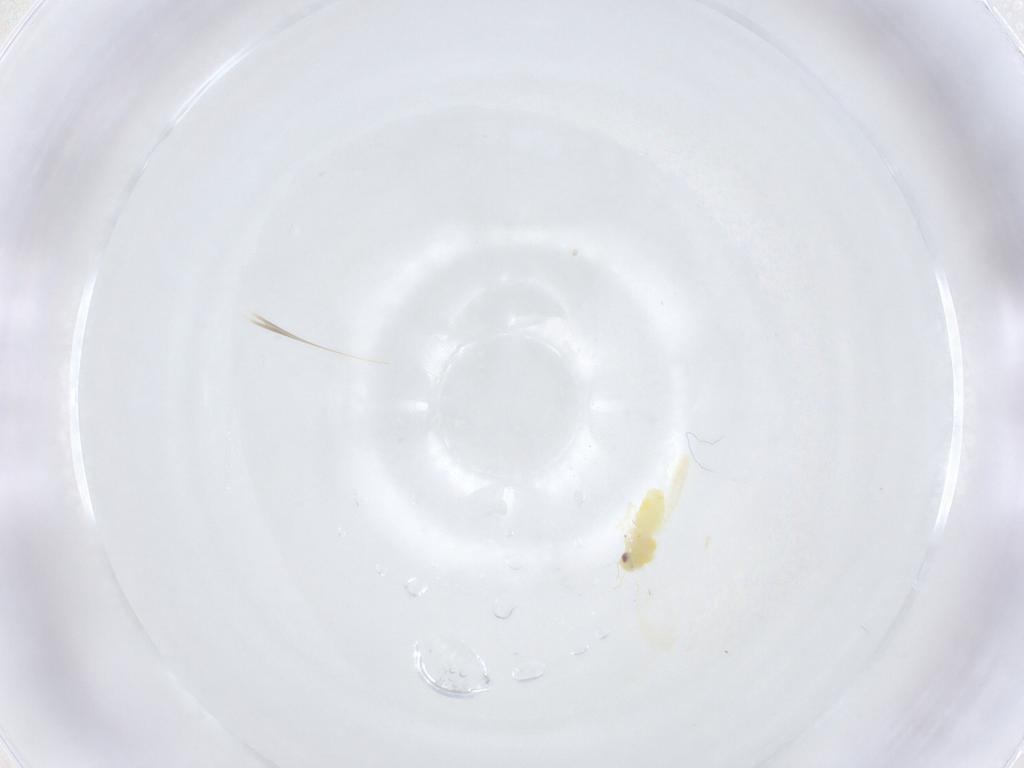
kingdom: Animalia
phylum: Arthropoda
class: Insecta
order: Hemiptera
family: Aleyrodidae
